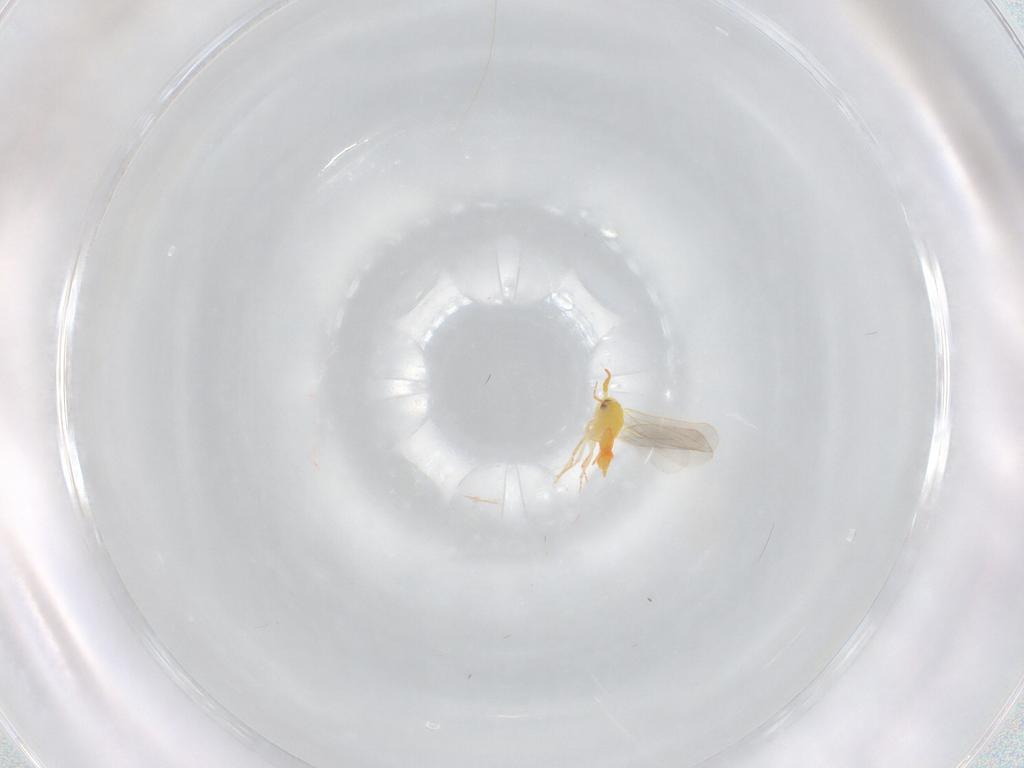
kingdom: Animalia
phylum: Arthropoda
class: Insecta
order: Hemiptera
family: Aleyrodidae
